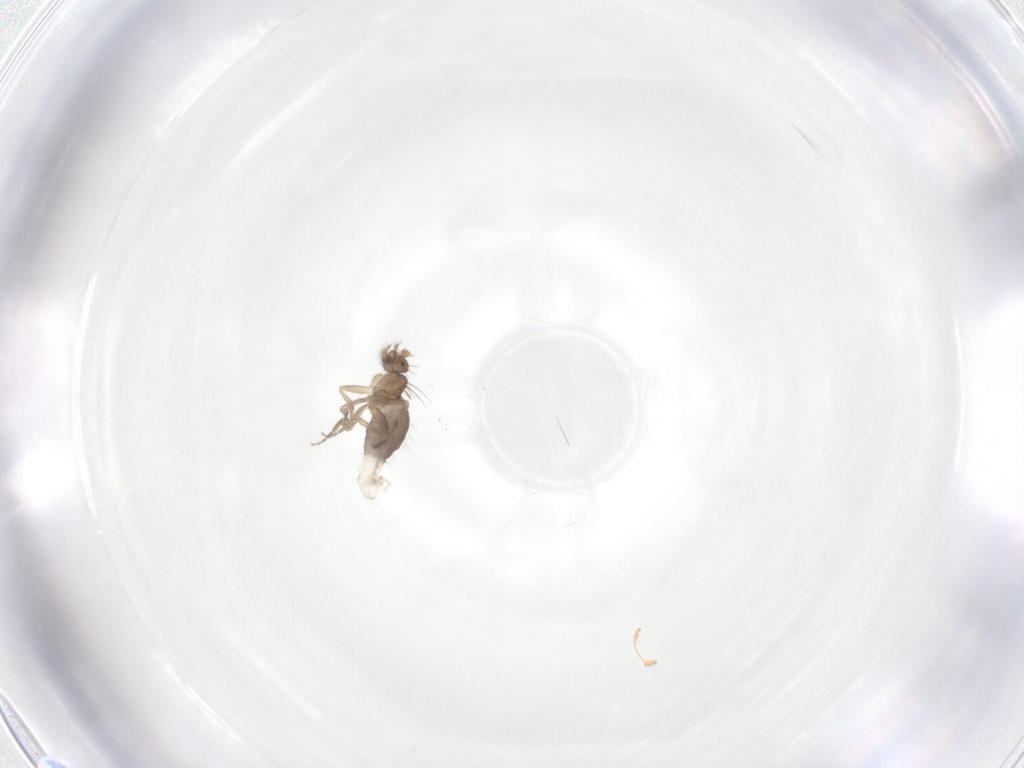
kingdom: Animalia
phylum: Arthropoda
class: Insecta
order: Diptera
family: Phoridae
